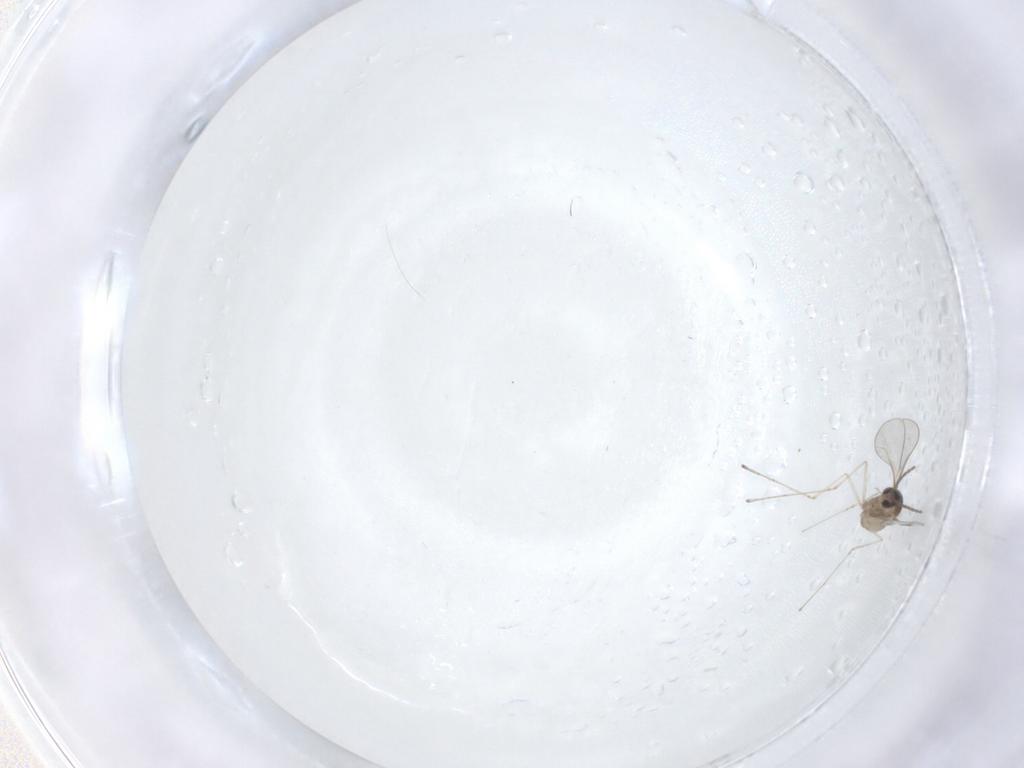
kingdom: Animalia
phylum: Arthropoda
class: Insecta
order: Diptera
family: Cecidomyiidae
